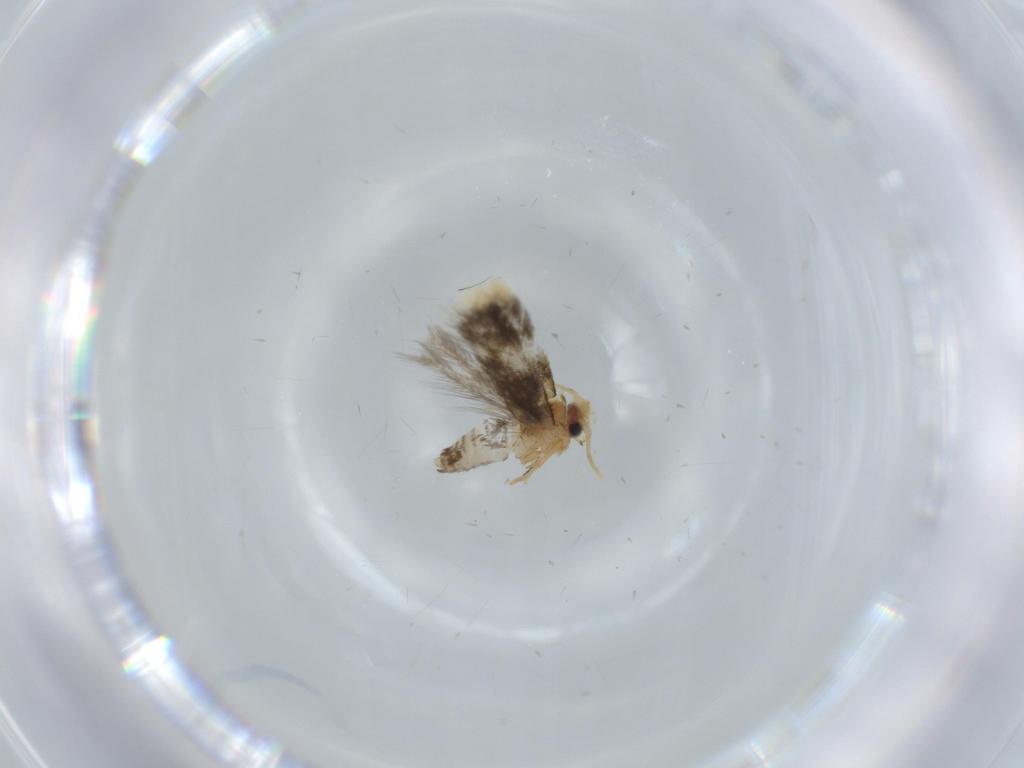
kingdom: Animalia
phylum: Arthropoda
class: Insecta
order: Lepidoptera
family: Copromorphidae
